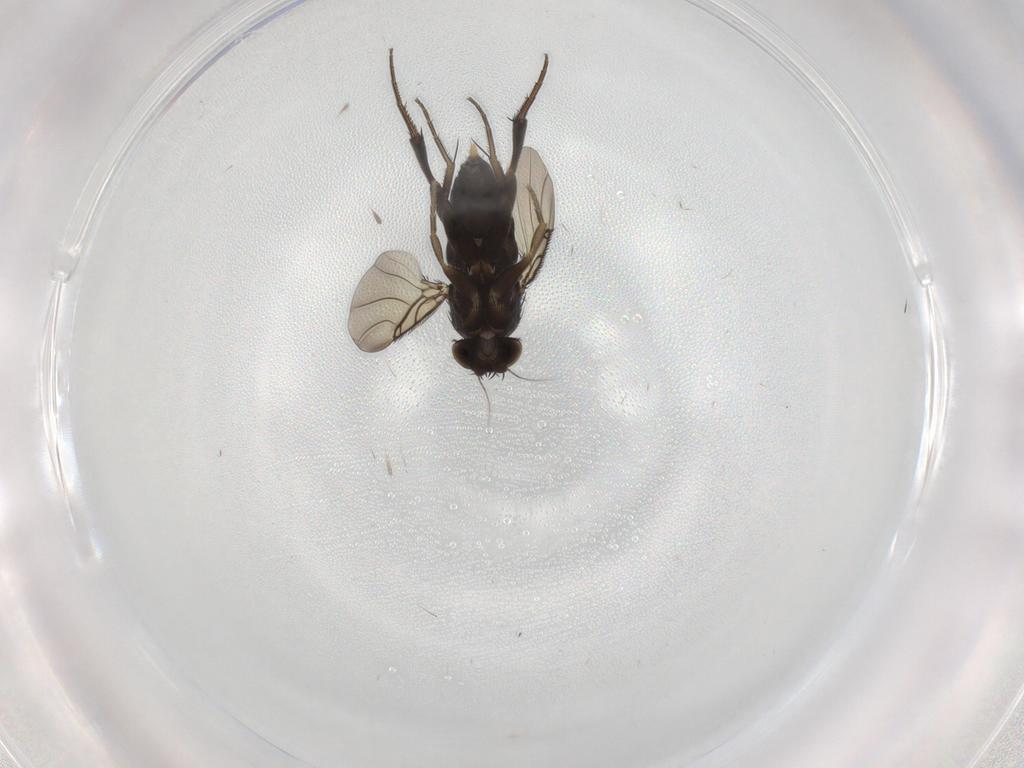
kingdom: Animalia
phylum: Arthropoda
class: Insecta
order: Diptera
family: Phoridae
